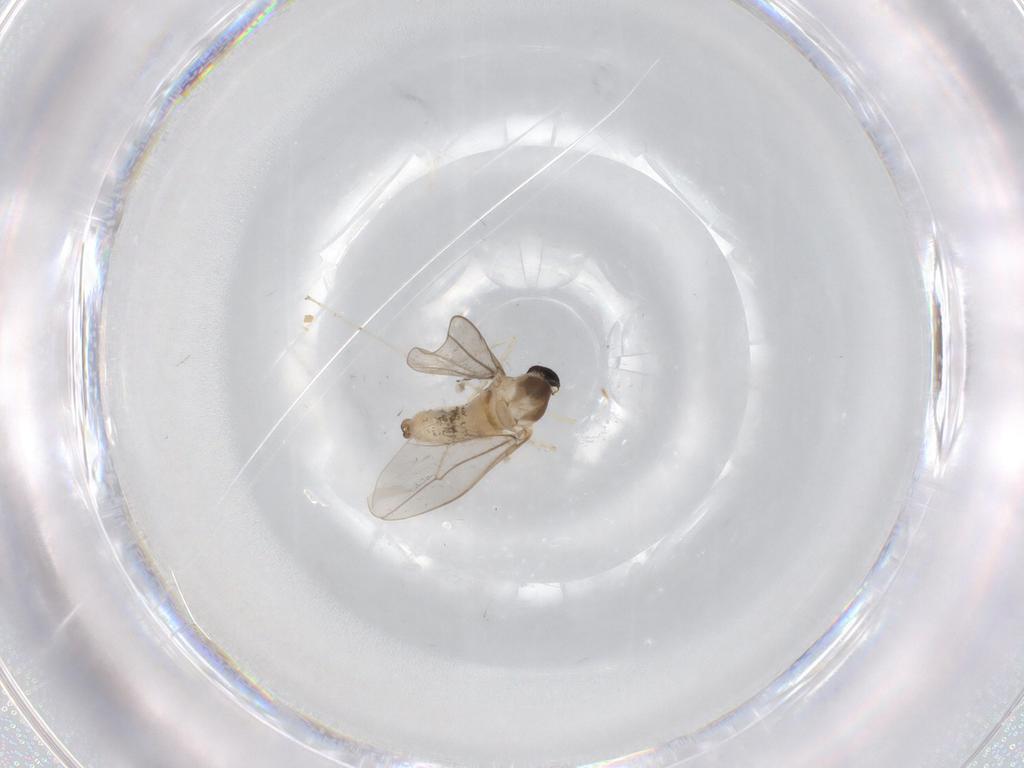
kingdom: Animalia
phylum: Arthropoda
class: Insecta
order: Diptera
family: Cecidomyiidae
